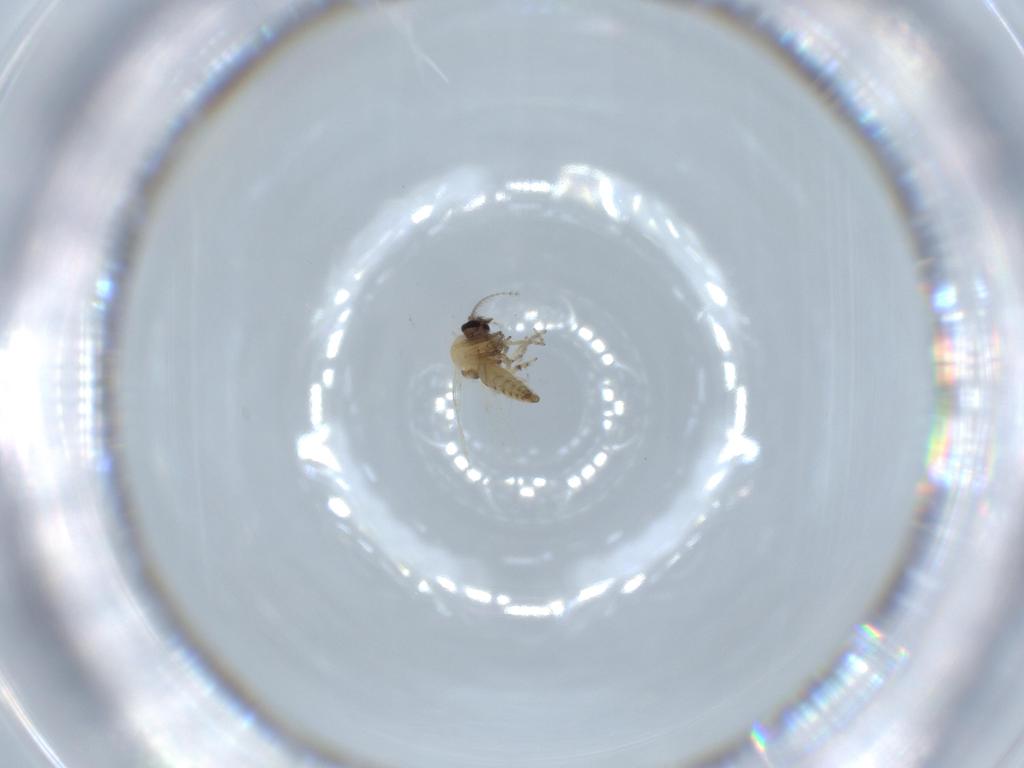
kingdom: Animalia
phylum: Arthropoda
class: Insecta
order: Diptera
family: Ceratopogonidae
